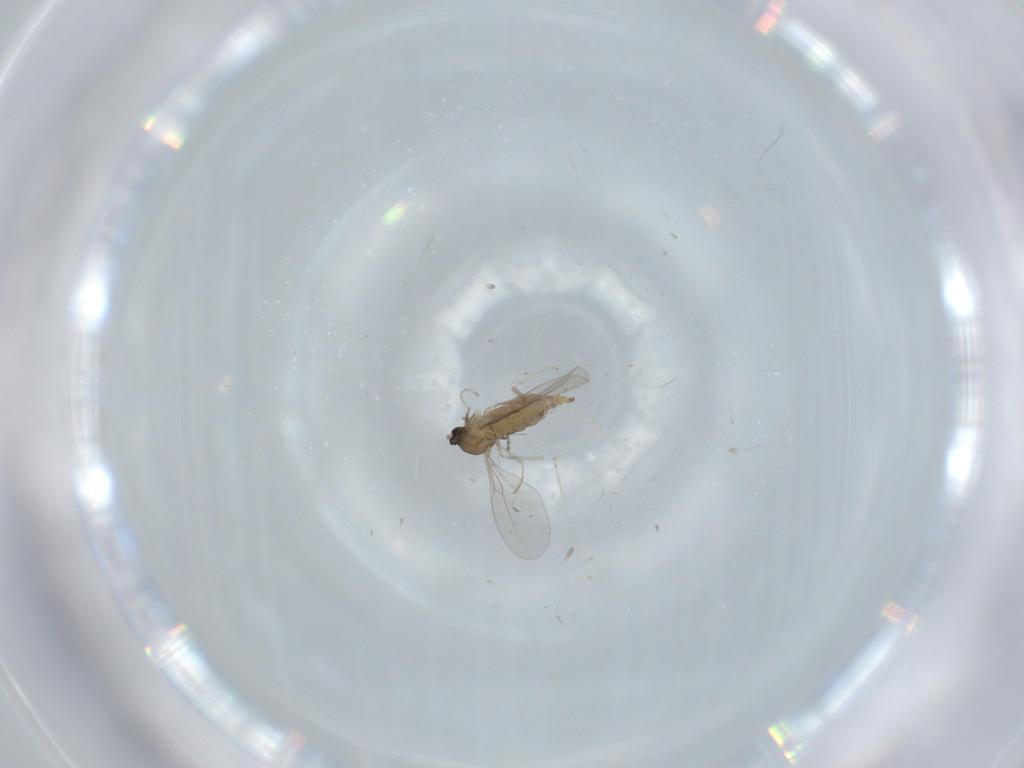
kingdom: Animalia
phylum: Arthropoda
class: Insecta
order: Diptera
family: Cecidomyiidae
